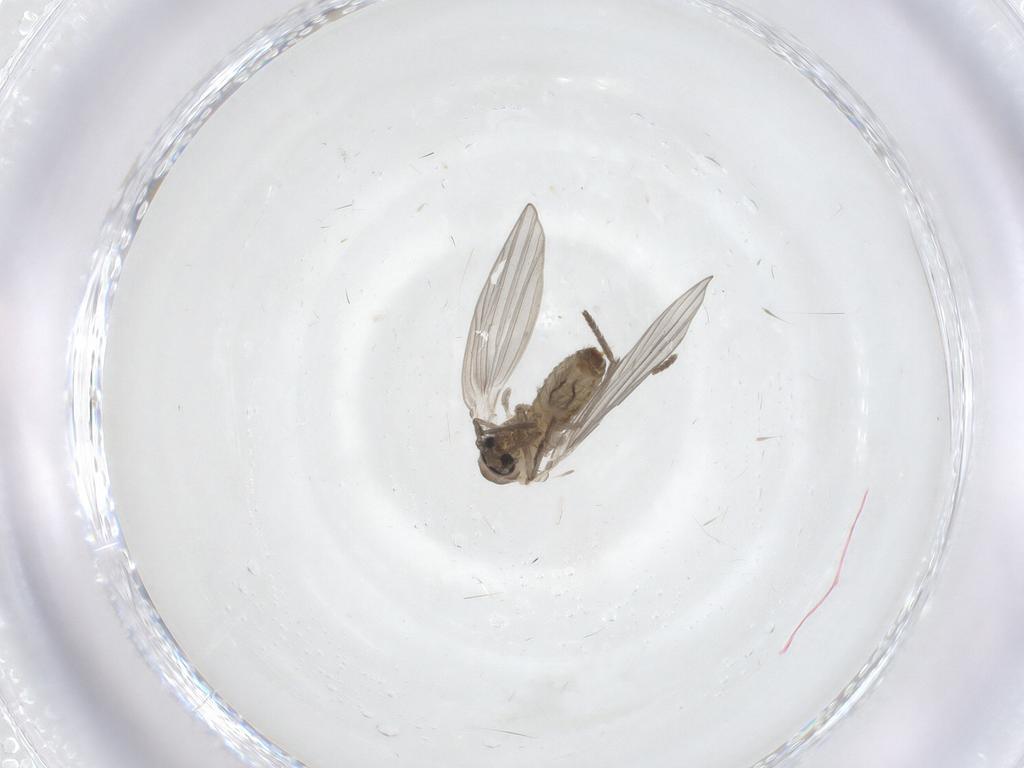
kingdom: Animalia
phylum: Arthropoda
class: Insecta
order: Diptera
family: Psychodidae
